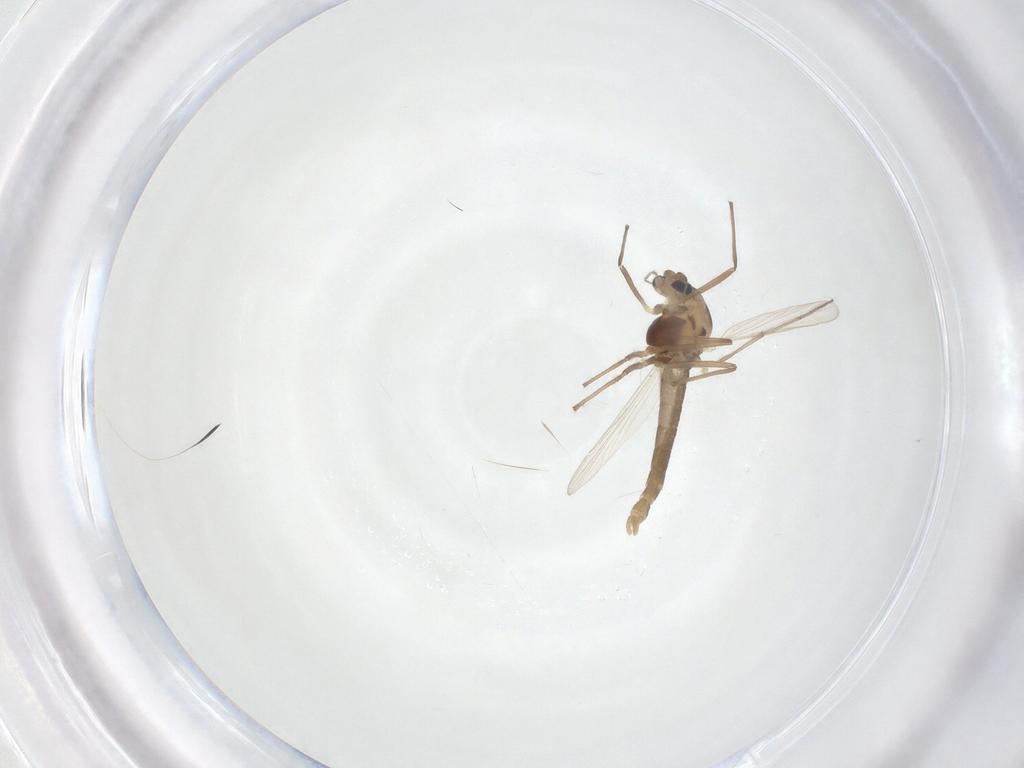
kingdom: Animalia
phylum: Arthropoda
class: Insecta
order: Diptera
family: Chironomidae
